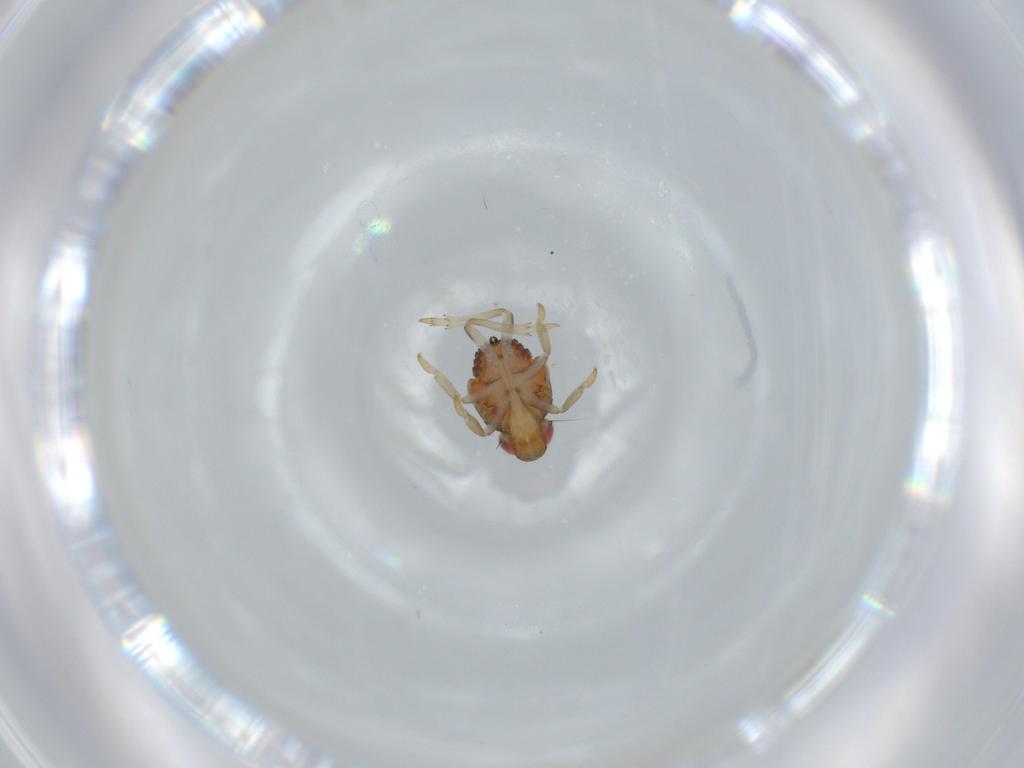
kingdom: Animalia
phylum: Arthropoda
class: Insecta
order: Hemiptera
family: Issidae
